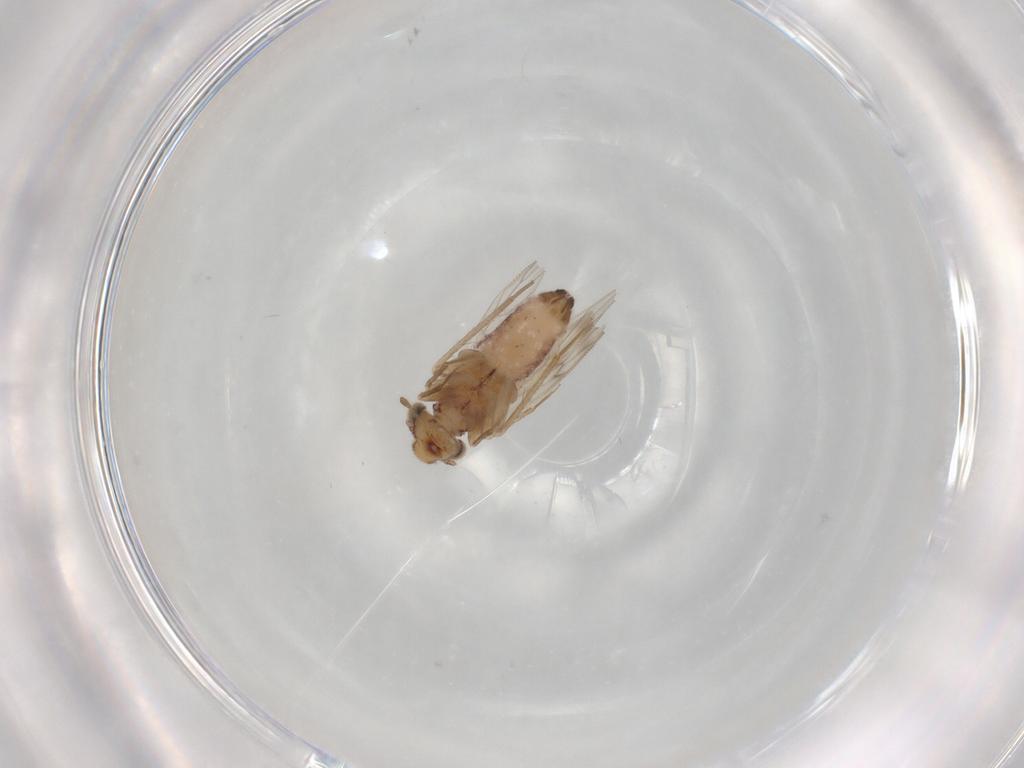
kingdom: Animalia
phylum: Arthropoda
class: Insecta
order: Psocodea
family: Lepidopsocidae
